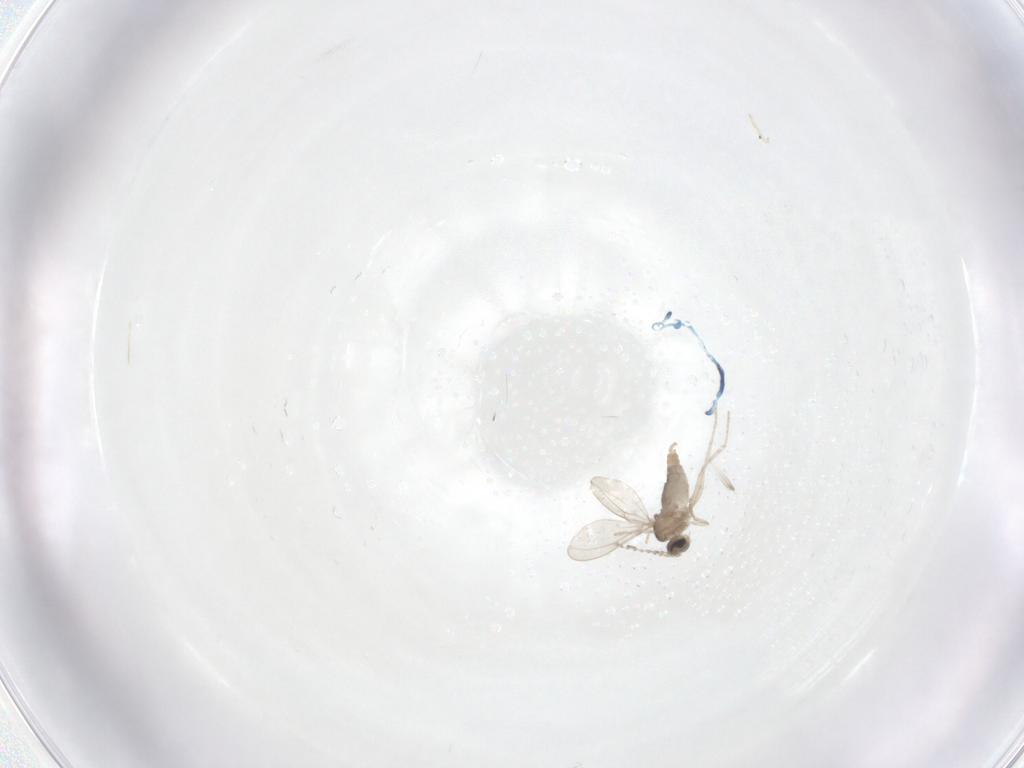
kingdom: Animalia
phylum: Arthropoda
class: Insecta
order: Diptera
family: Cecidomyiidae
